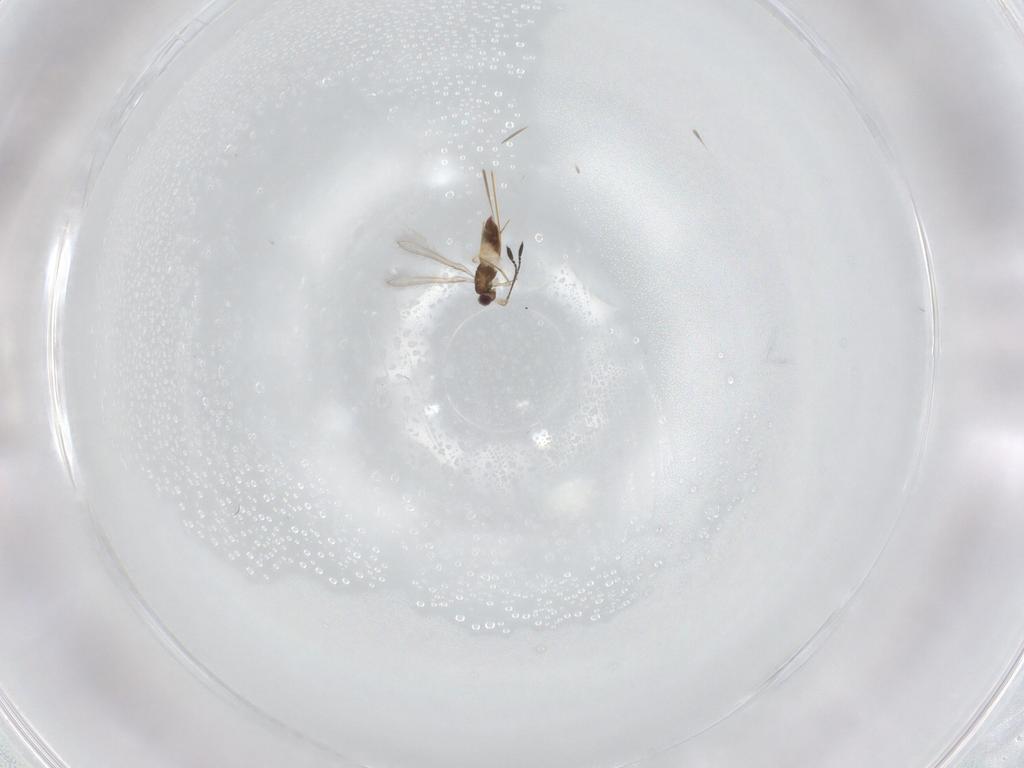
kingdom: Animalia
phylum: Arthropoda
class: Insecta
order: Hymenoptera
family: Mymaridae
